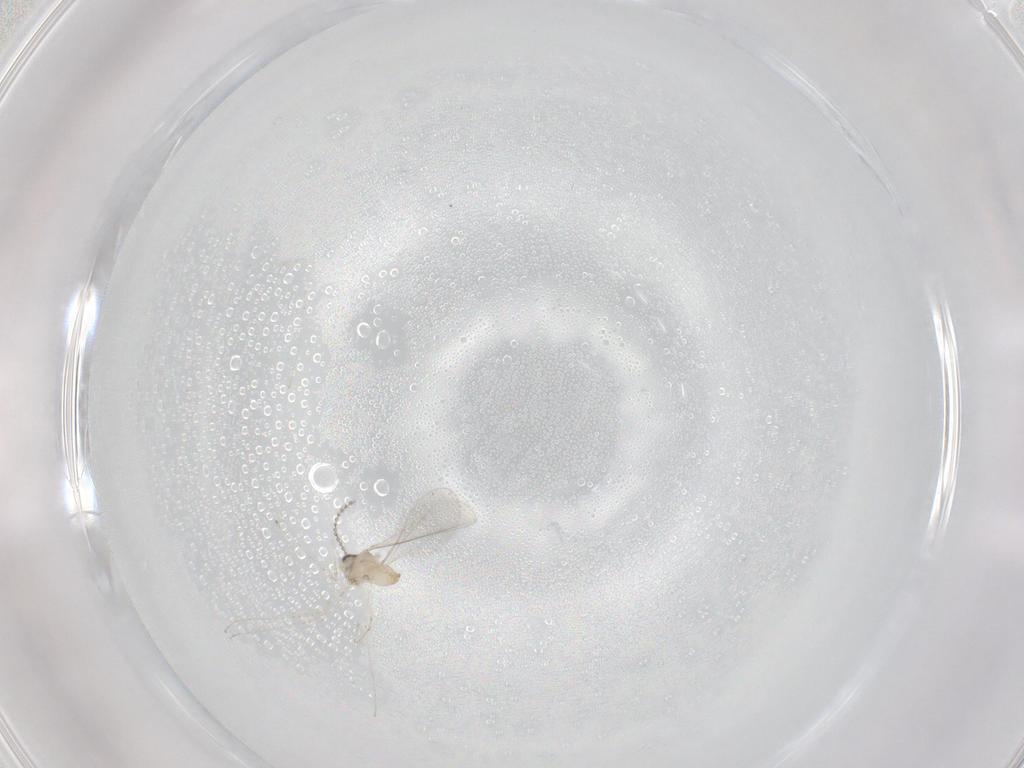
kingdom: Animalia
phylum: Arthropoda
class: Insecta
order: Diptera
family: Cecidomyiidae
